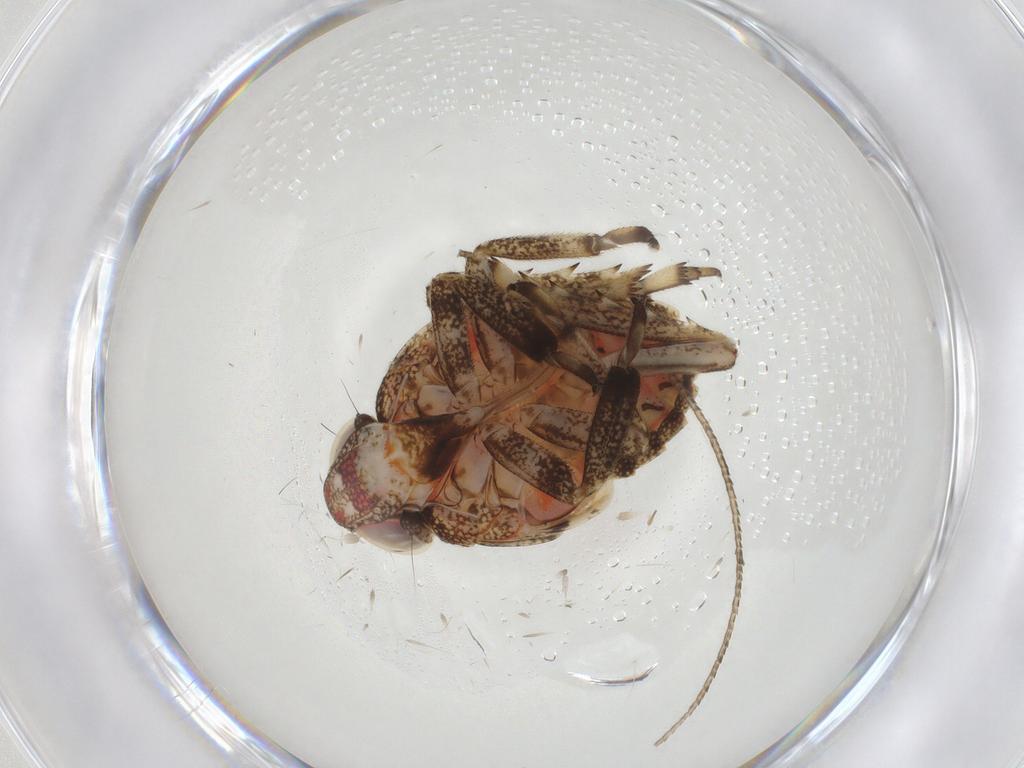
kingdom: Animalia
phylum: Arthropoda
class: Insecta
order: Hemiptera
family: Issidae
